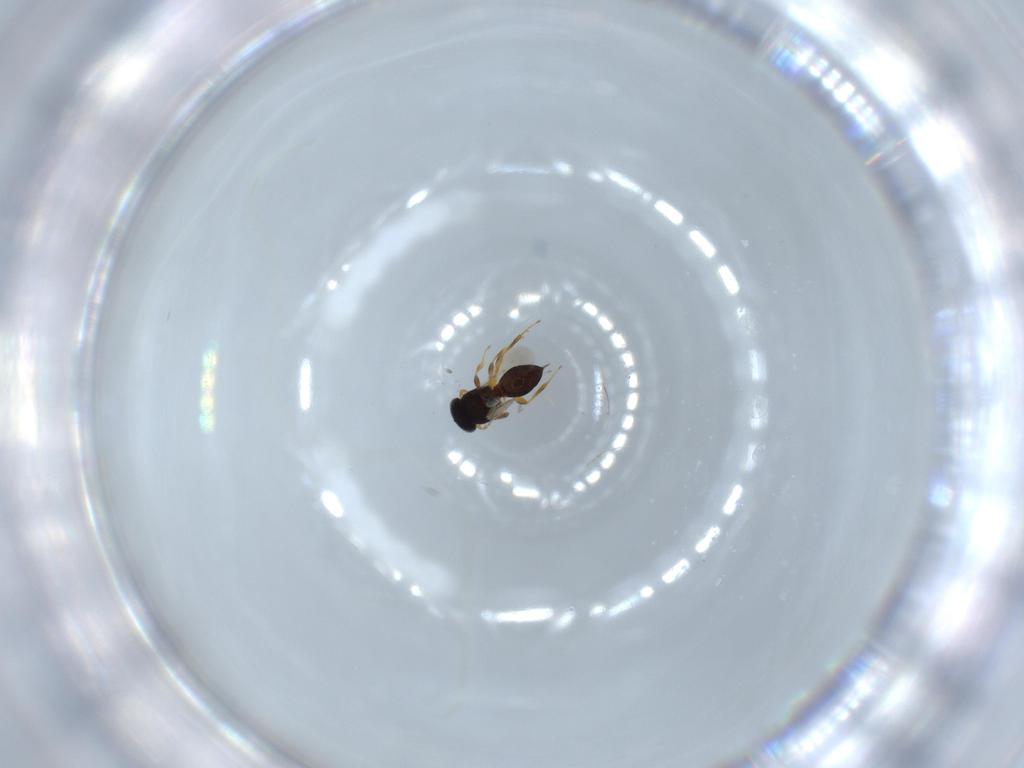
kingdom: Animalia
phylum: Arthropoda
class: Insecta
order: Hymenoptera
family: Platygastridae
